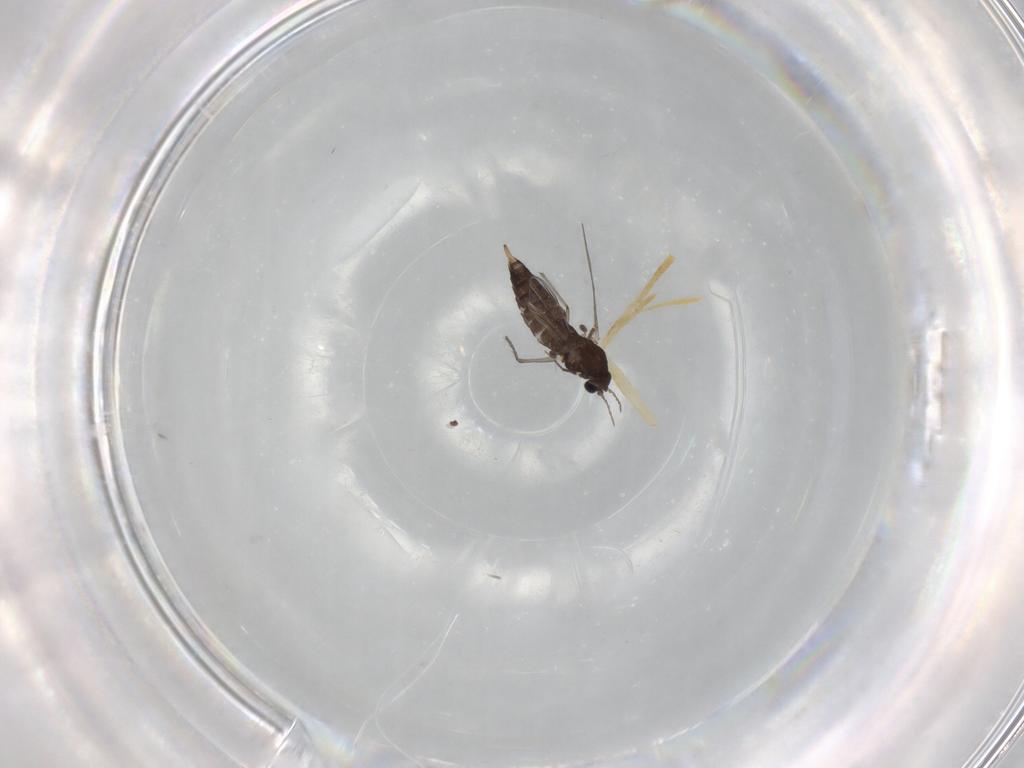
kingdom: Animalia
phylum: Arthropoda
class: Insecta
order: Diptera
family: Chironomidae
